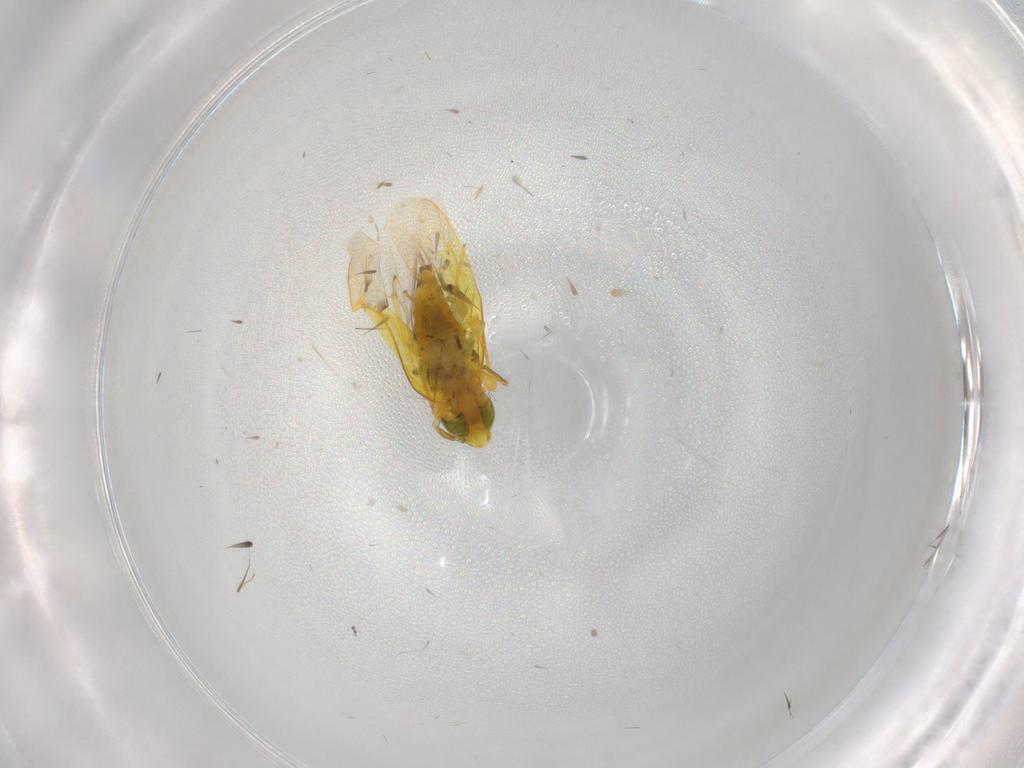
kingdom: Animalia
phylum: Arthropoda
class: Insecta
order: Hemiptera
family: Cicadellidae
